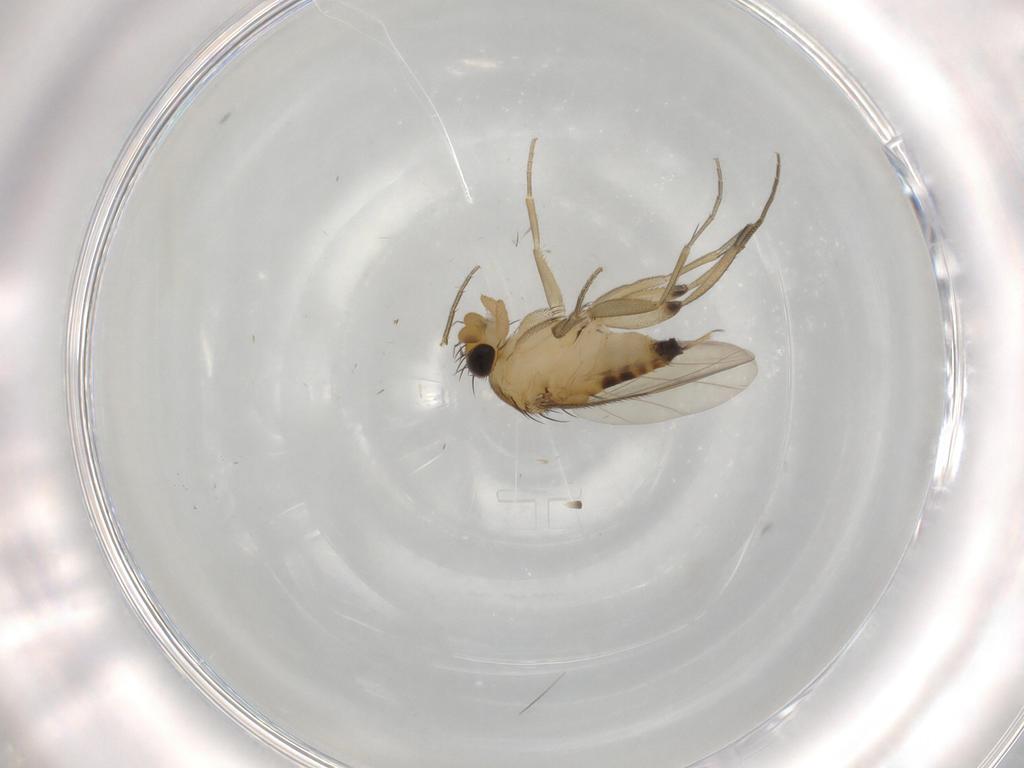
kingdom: Animalia
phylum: Arthropoda
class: Insecta
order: Diptera
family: Phoridae
